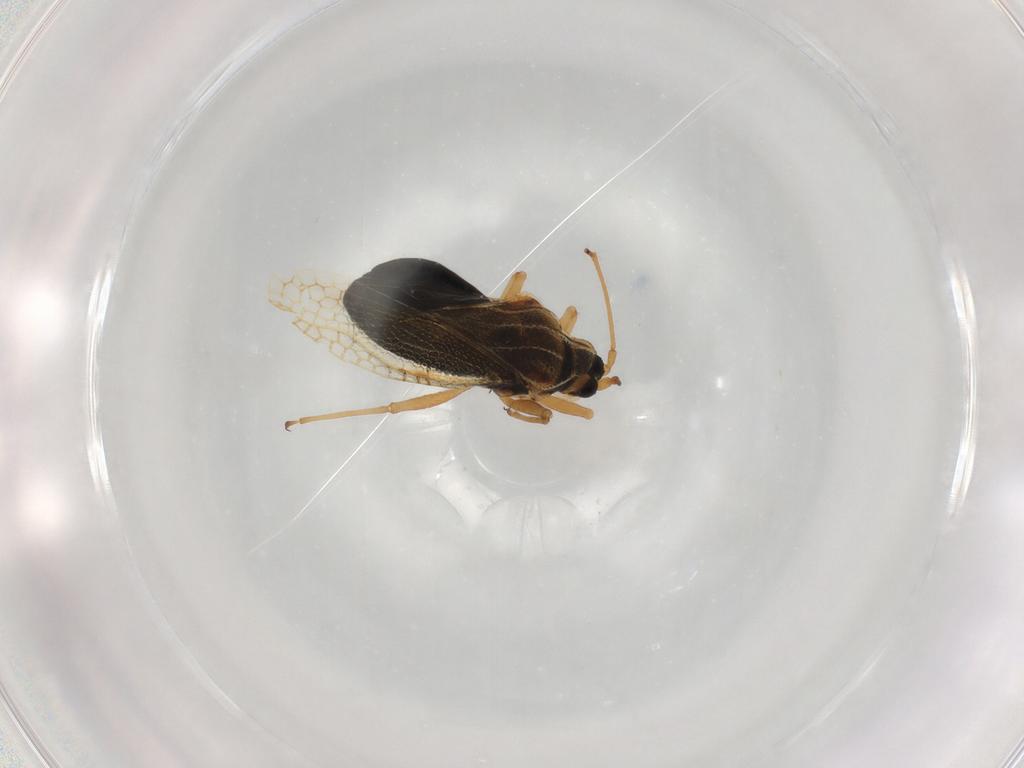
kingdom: Animalia
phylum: Arthropoda
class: Insecta
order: Hemiptera
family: Tingidae
